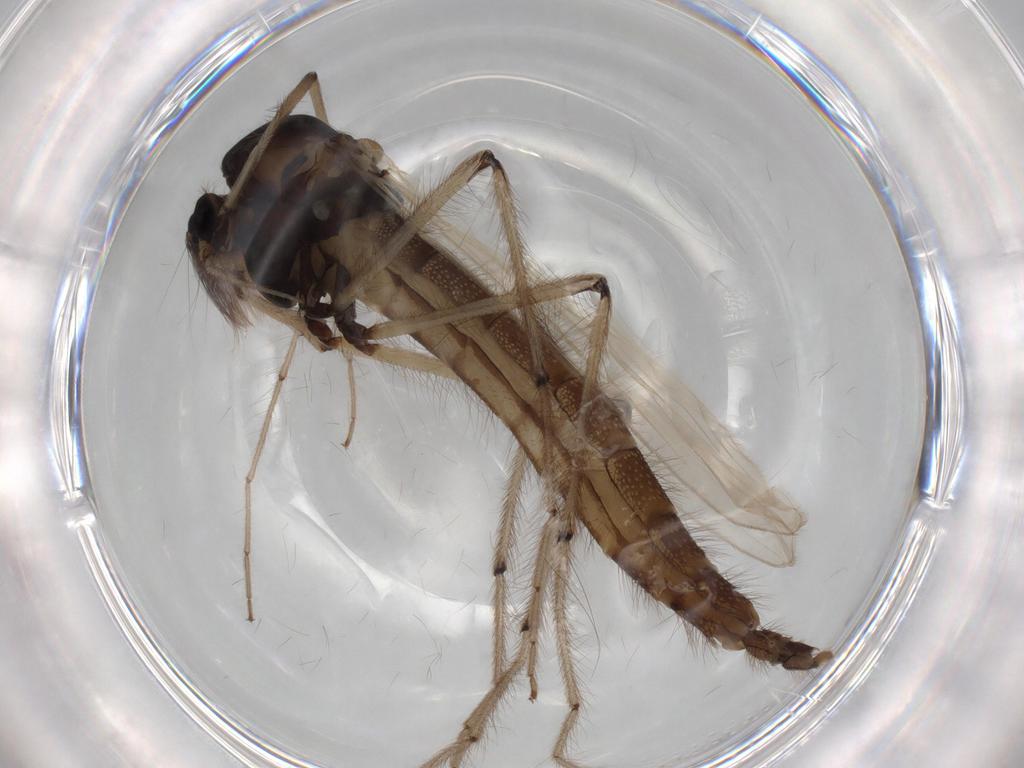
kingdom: Animalia
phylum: Arthropoda
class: Insecta
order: Diptera
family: Chironomidae
